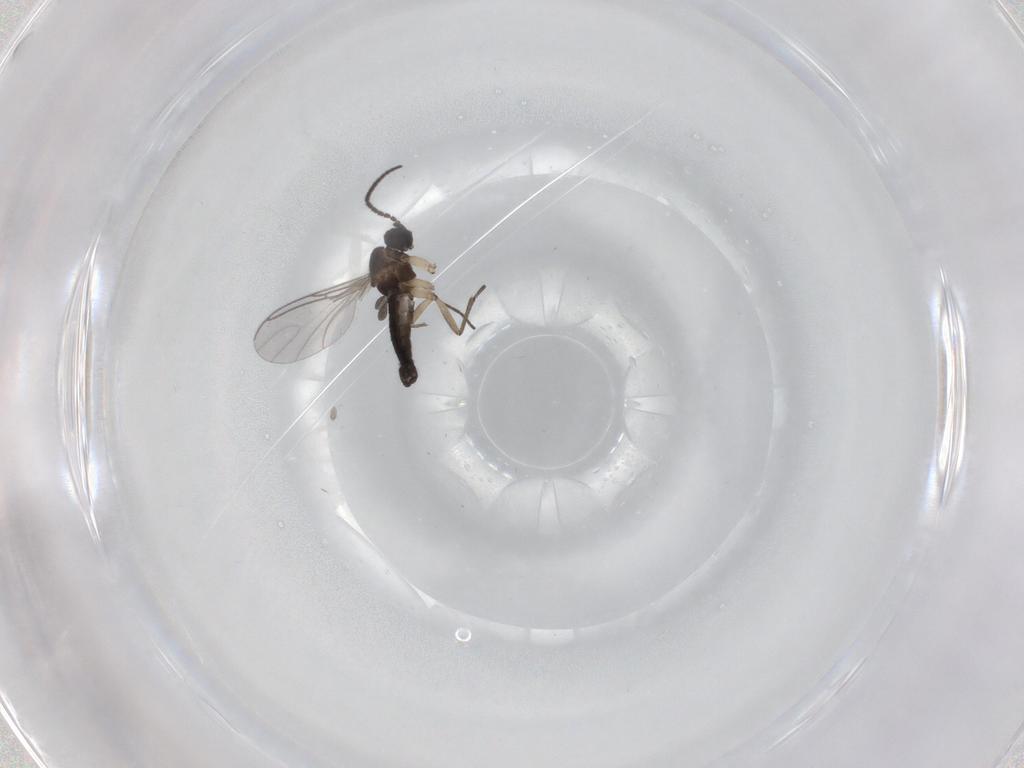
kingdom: Animalia
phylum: Arthropoda
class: Insecta
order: Diptera
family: Sciaridae
